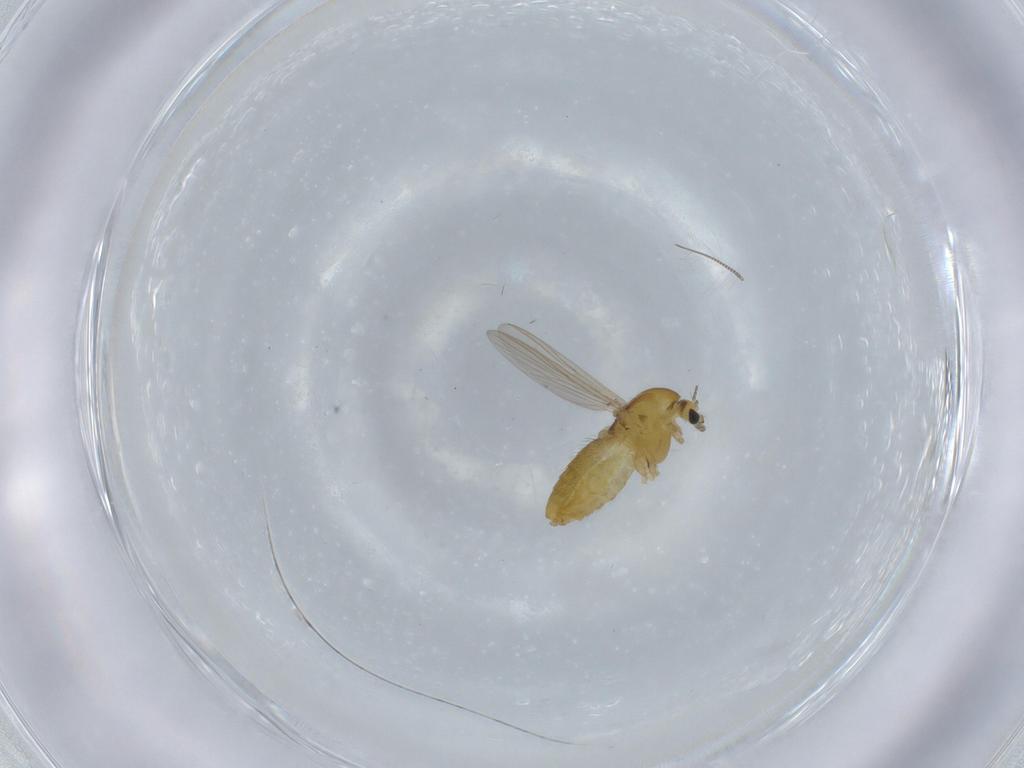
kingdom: Animalia
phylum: Arthropoda
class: Insecta
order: Diptera
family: Chironomidae
